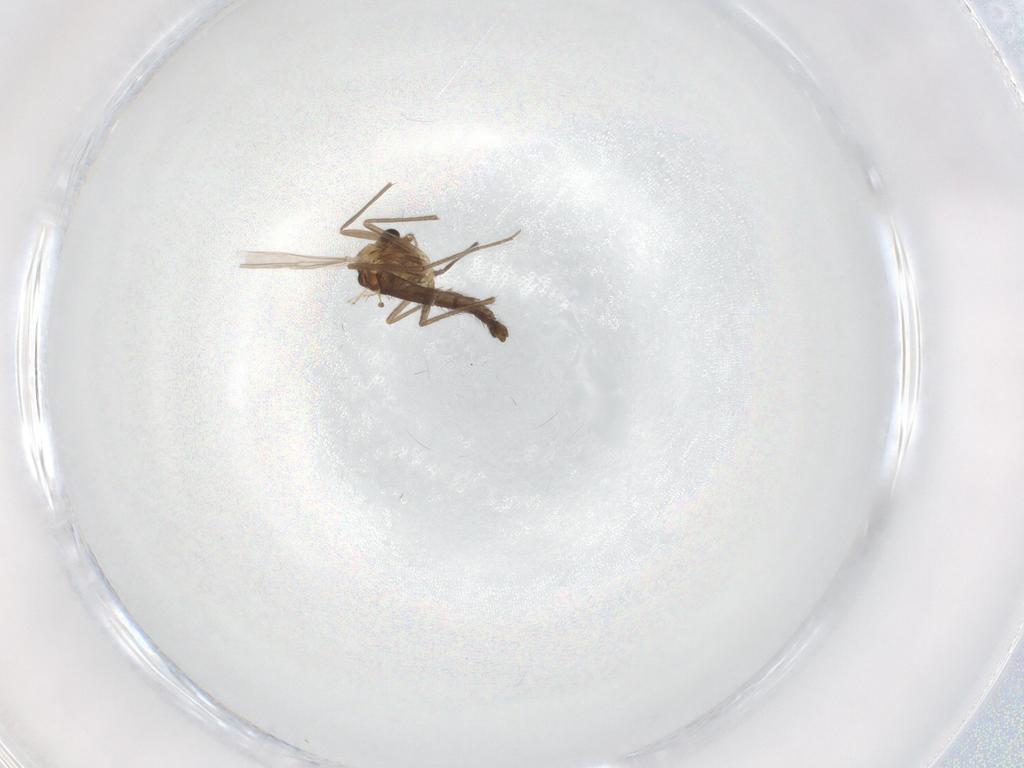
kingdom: Animalia
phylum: Arthropoda
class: Insecta
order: Diptera
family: Chironomidae
